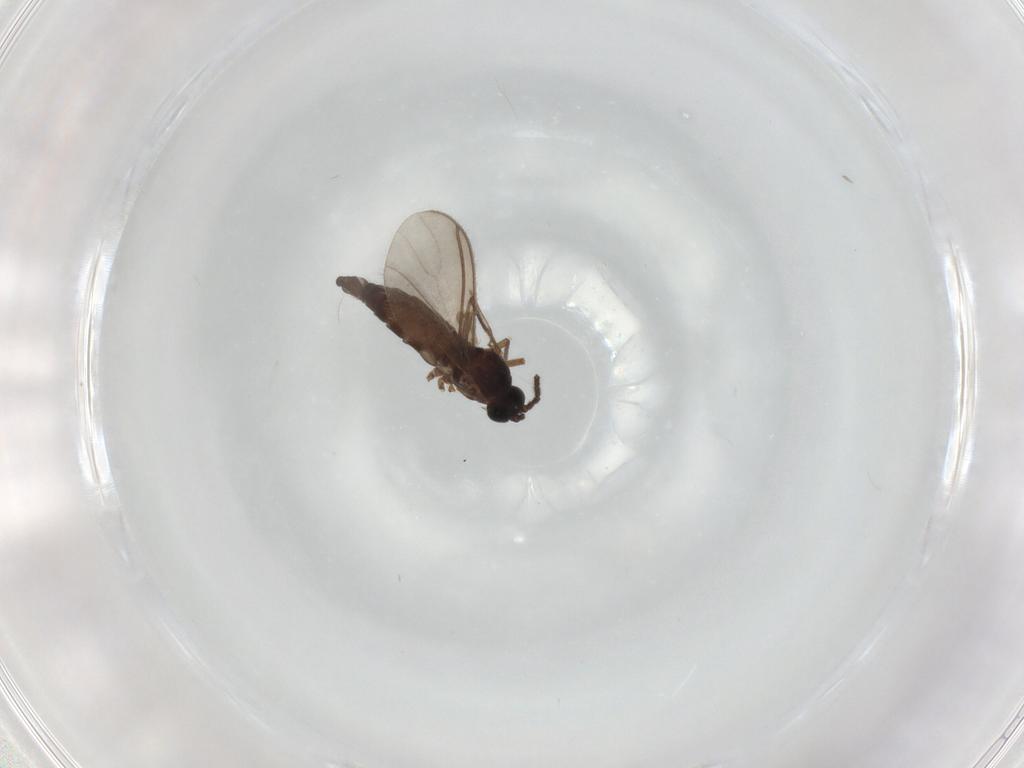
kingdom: Animalia
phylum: Arthropoda
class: Insecta
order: Diptera
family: Sciaridae
